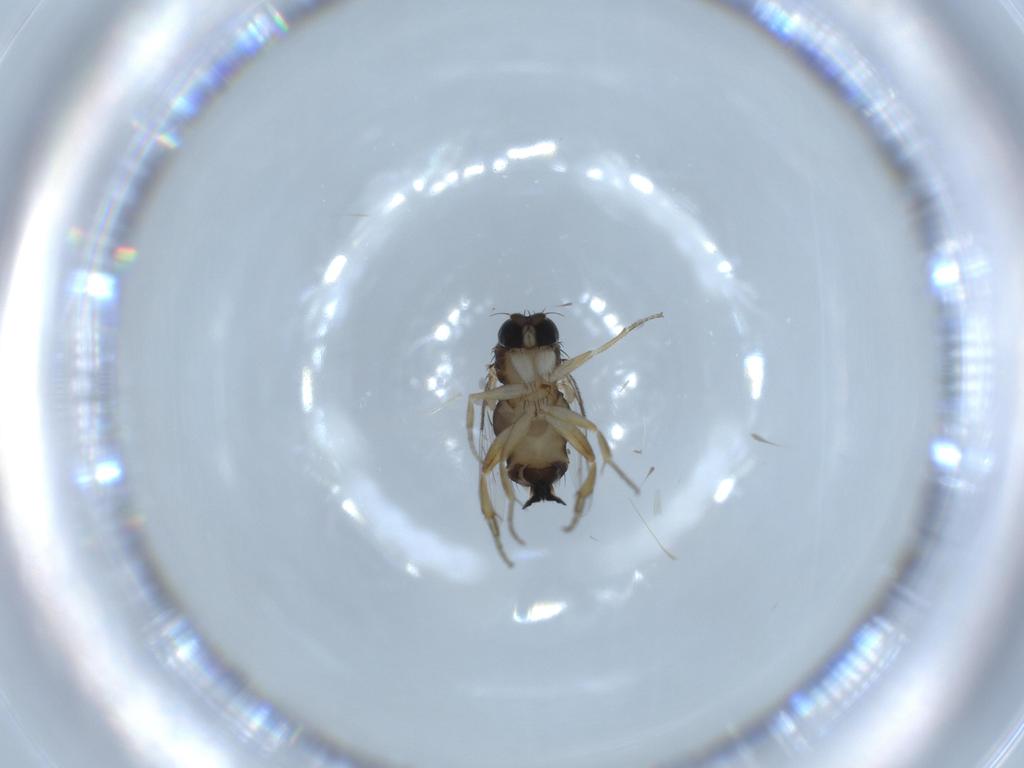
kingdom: Animalia
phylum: Arthropoda
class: Insecta
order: Diptera
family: Phoridae
